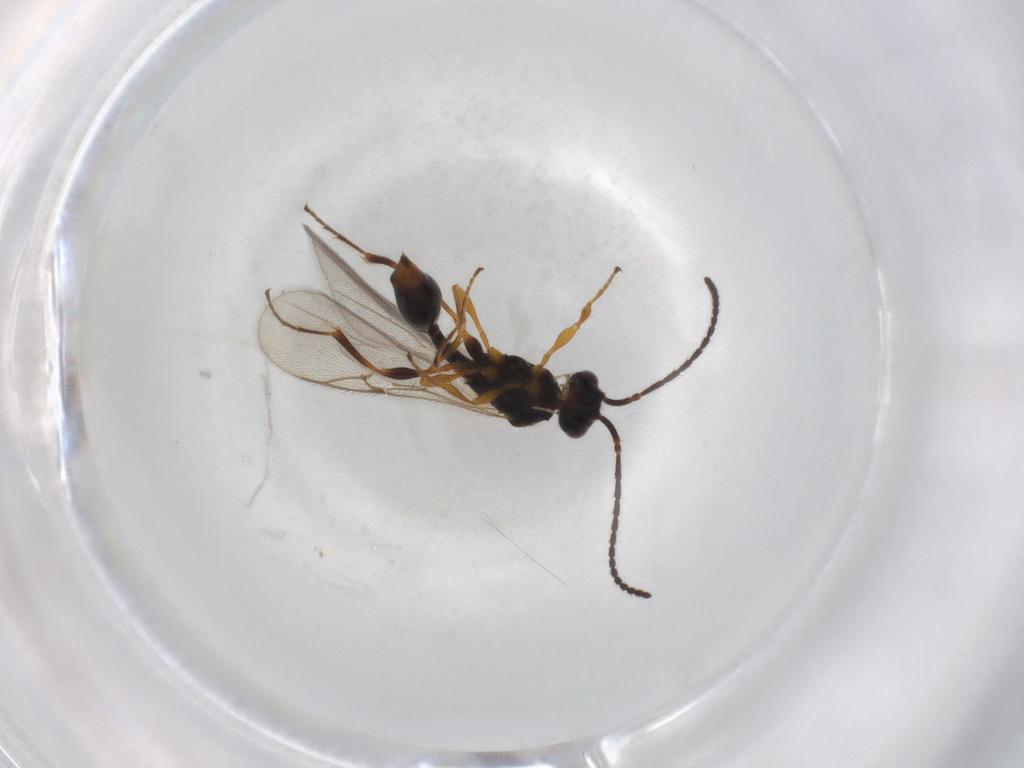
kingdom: Animalia
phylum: Arthropoda
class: Insecta
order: Hymenoptera
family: Diapriidae
